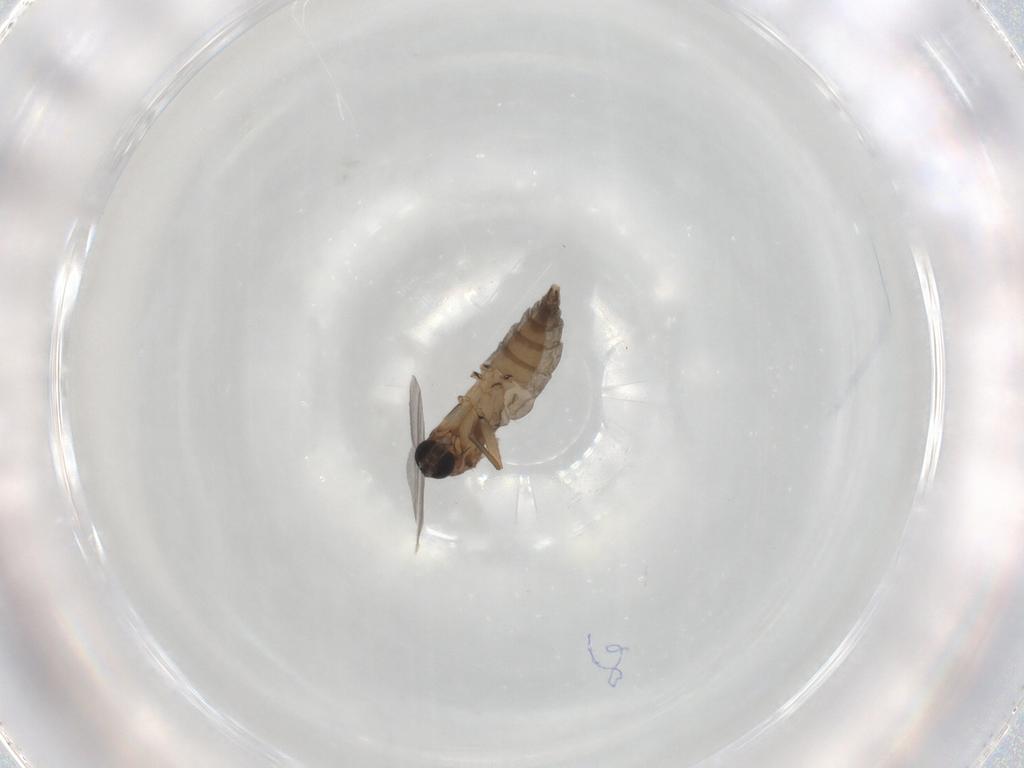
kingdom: Animalia
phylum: Arthropoda
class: Insecta
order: Diptera
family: Sciaridae
